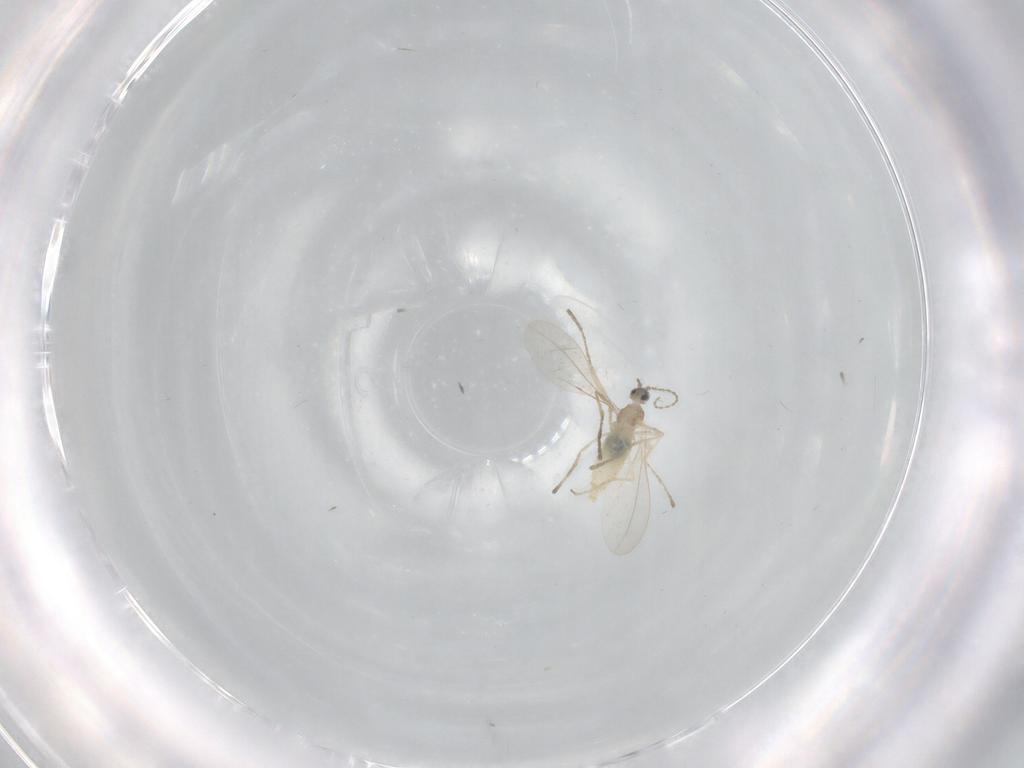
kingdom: Animalia
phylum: Arthropoda
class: Insecta
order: Diptera
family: Cecidomyiidae
